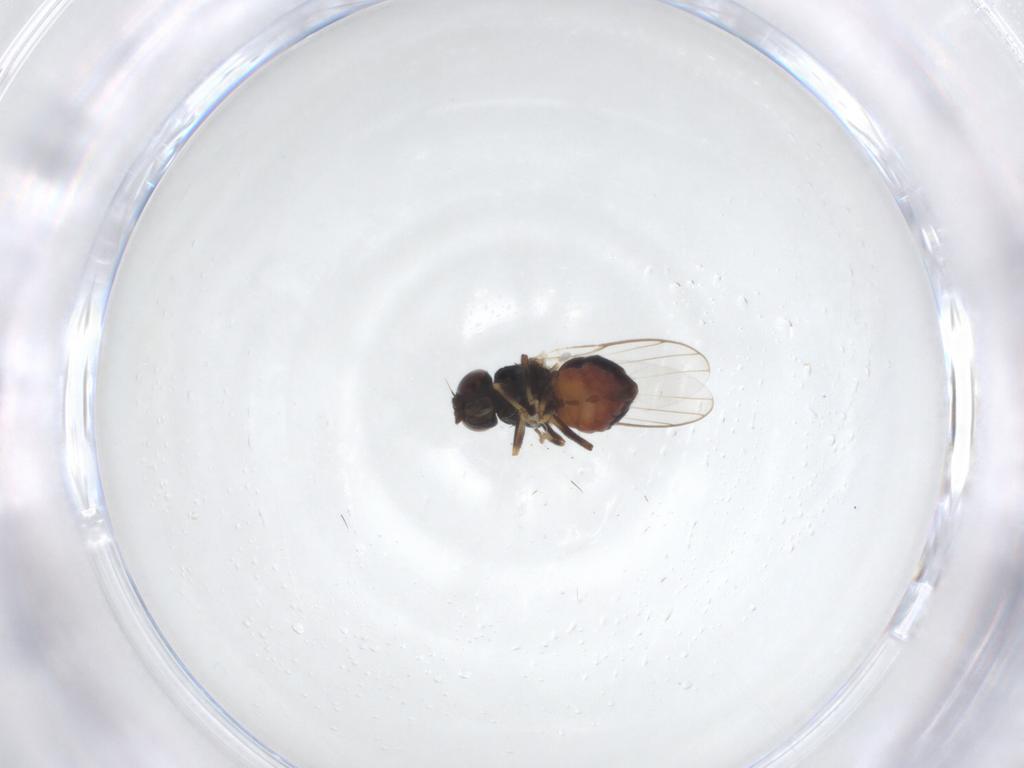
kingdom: Animalia
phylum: Arthropoda
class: Insecta
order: Diptera
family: Chloropidae
